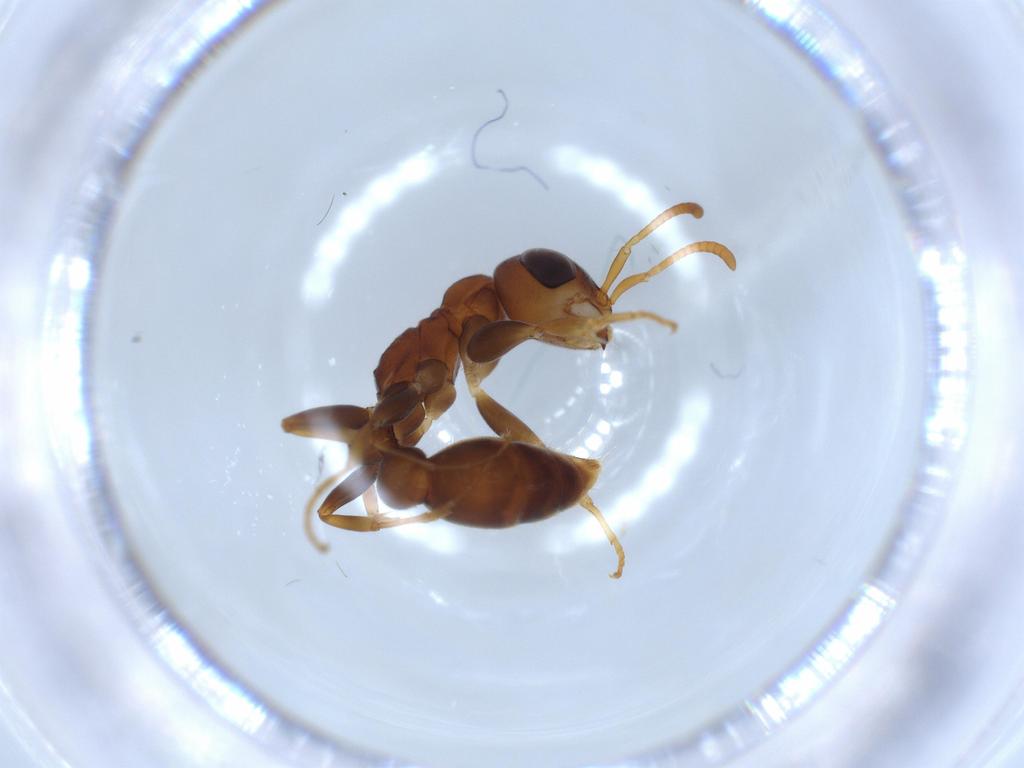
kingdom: Animalia
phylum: Arthropoda
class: Insecta
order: Hymenoptera
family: Formicidae
